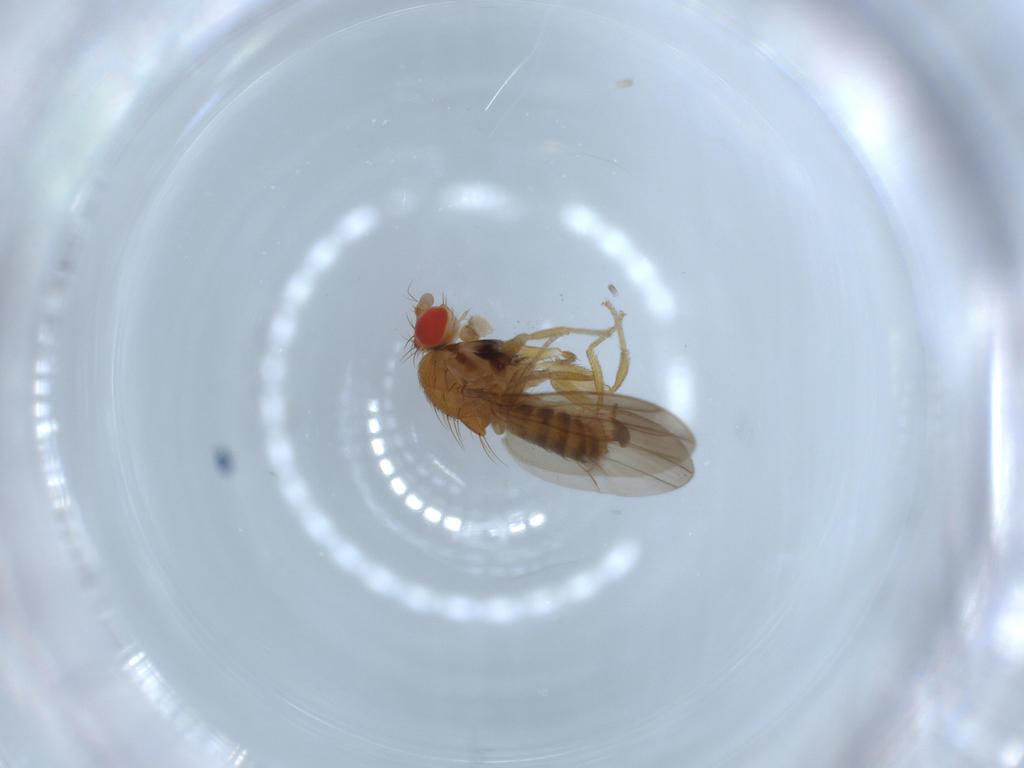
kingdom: Animalia
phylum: Arthropoda
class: Insecta
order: Diptera
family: Drosophilidae
